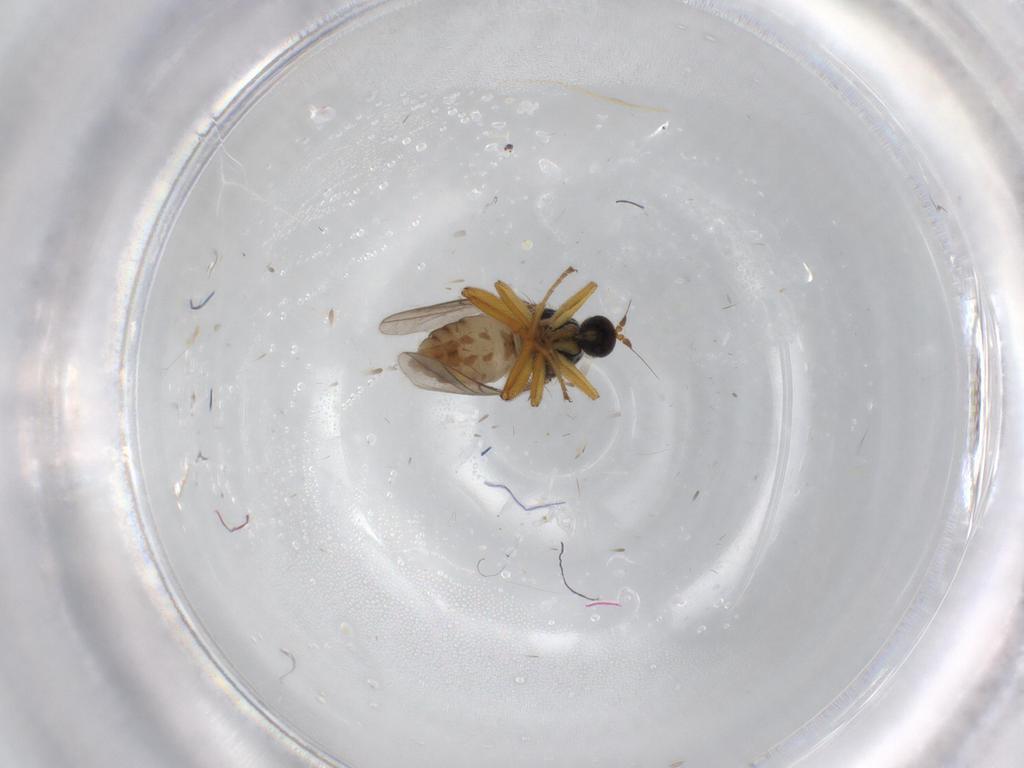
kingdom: Animalia
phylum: Arthropoda
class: Insecta
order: Diptera
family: Hybotidae
